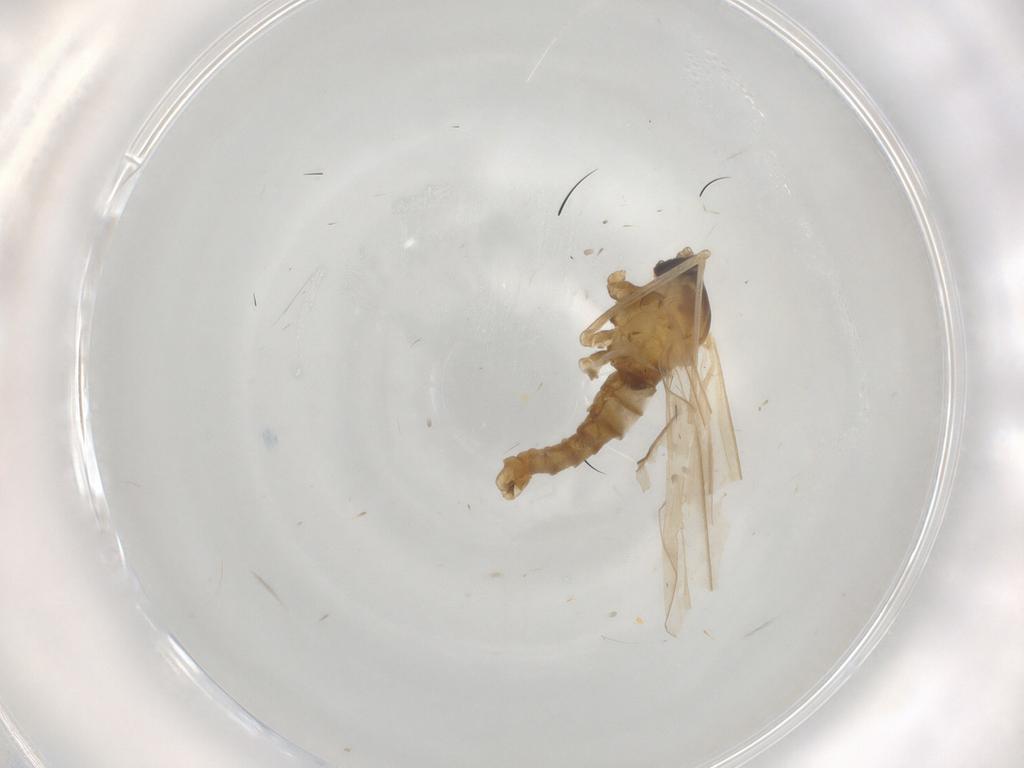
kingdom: Animalia
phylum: Arthropoda
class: Insecta
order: Diptera
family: Cecidomyiidae
